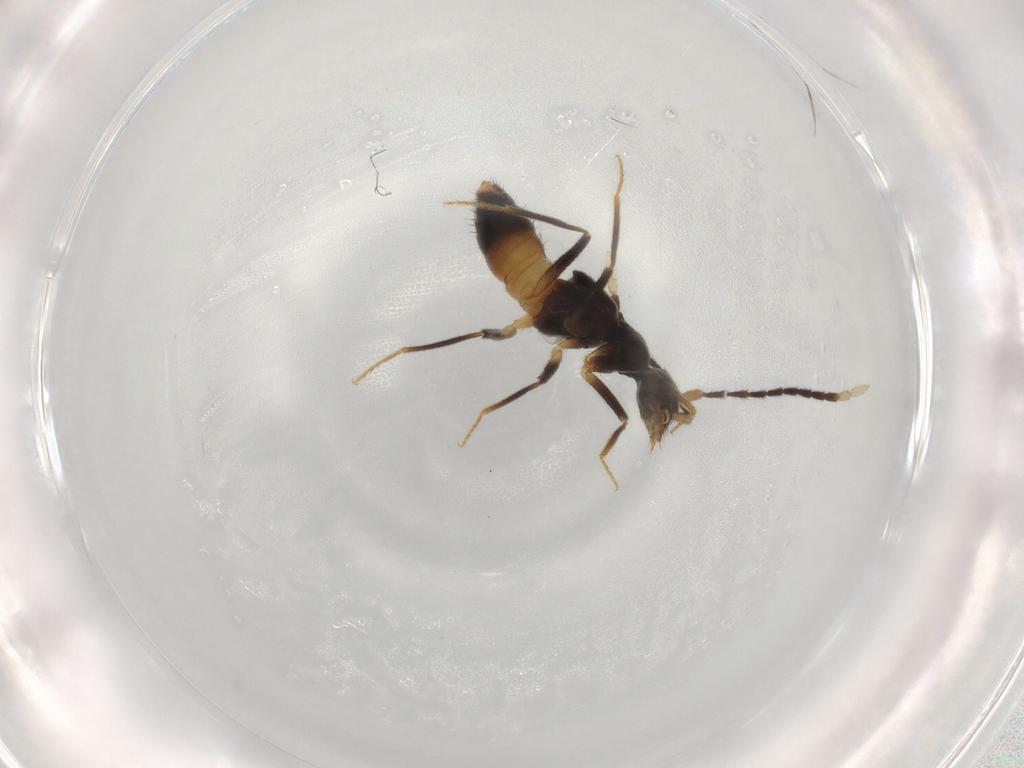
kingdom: Animalia
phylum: Arthropoda
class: Insecta
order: Coleoptera
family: Staphylinidae
